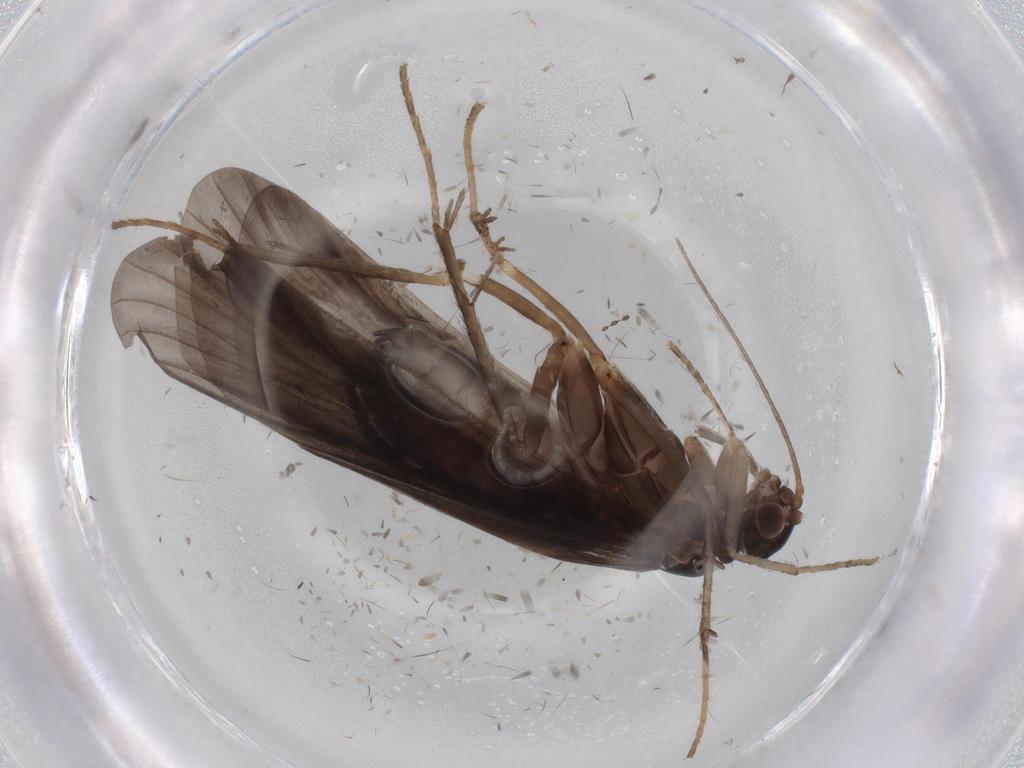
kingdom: Animalia
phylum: Arthropoda
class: Insecta
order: Trichoptera
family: Hydropsychidae
